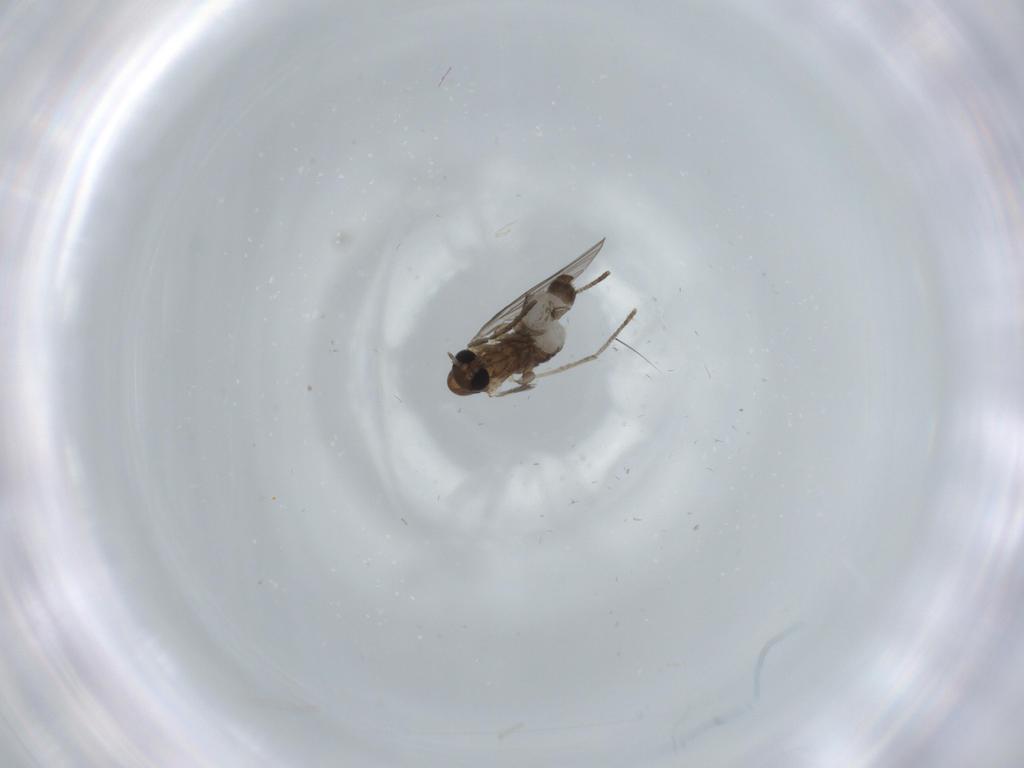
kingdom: Animalia
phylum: Arthropoda
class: Insecta
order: Diptera
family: Psychodidae
